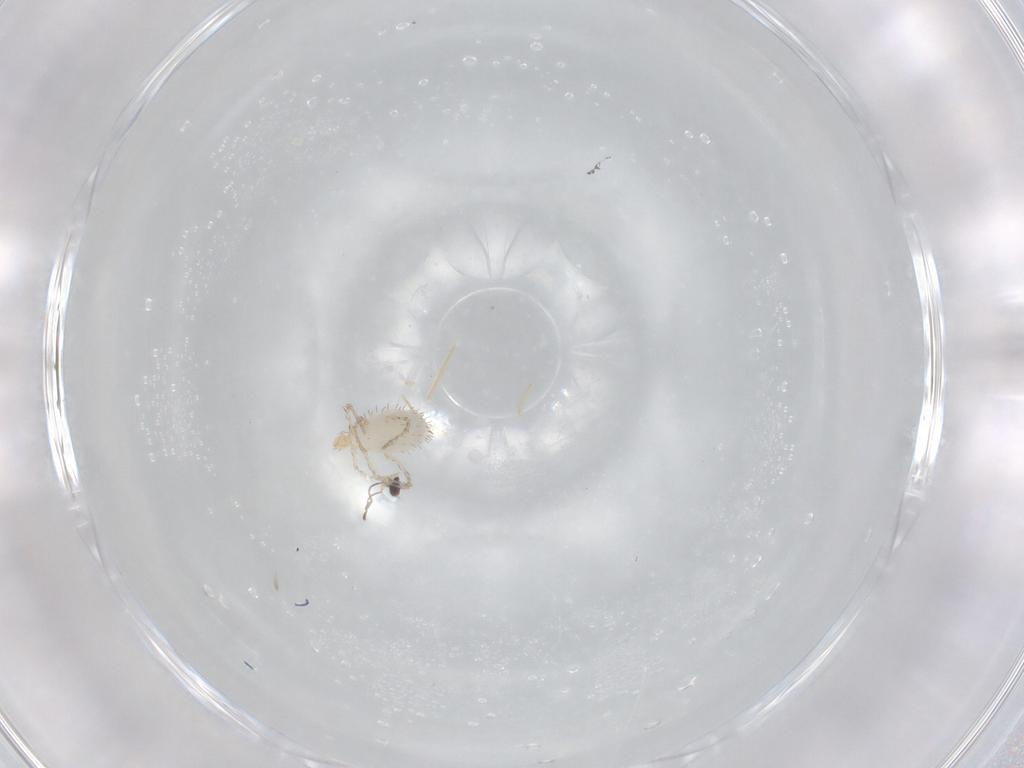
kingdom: Animalia
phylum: Arthropoda
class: Arachnida
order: Trombidiformes
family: Erythraeidae
